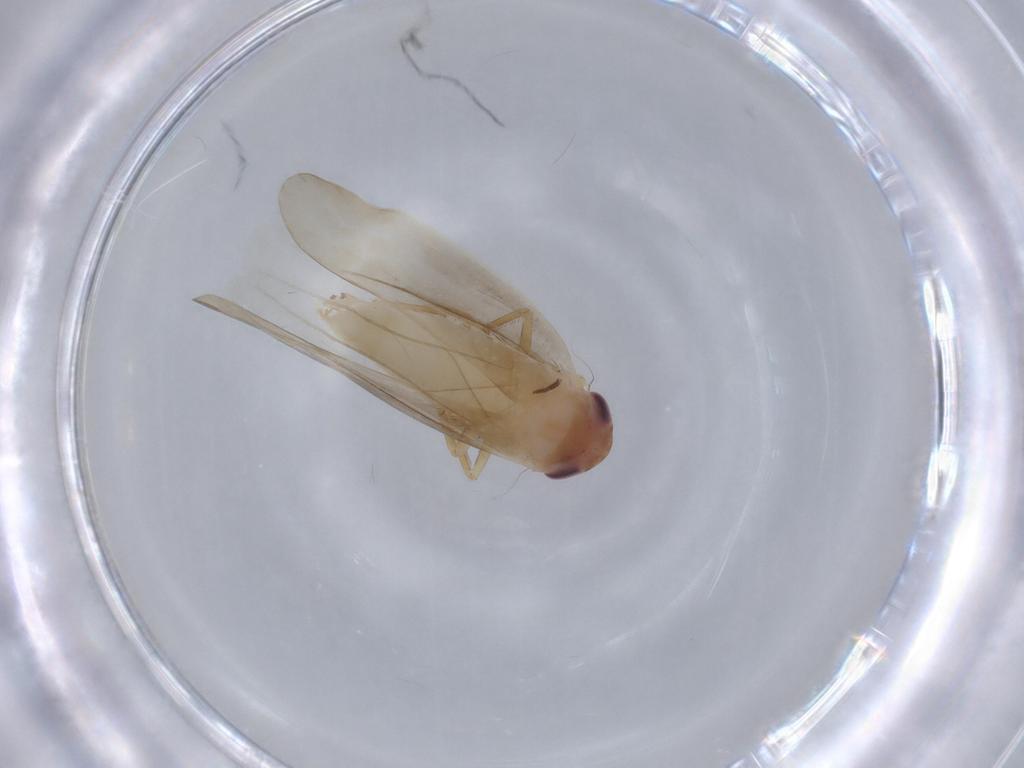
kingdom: Animalia
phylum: Arthropoda
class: Insecta
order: Hemiptera
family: Cicadellidae
